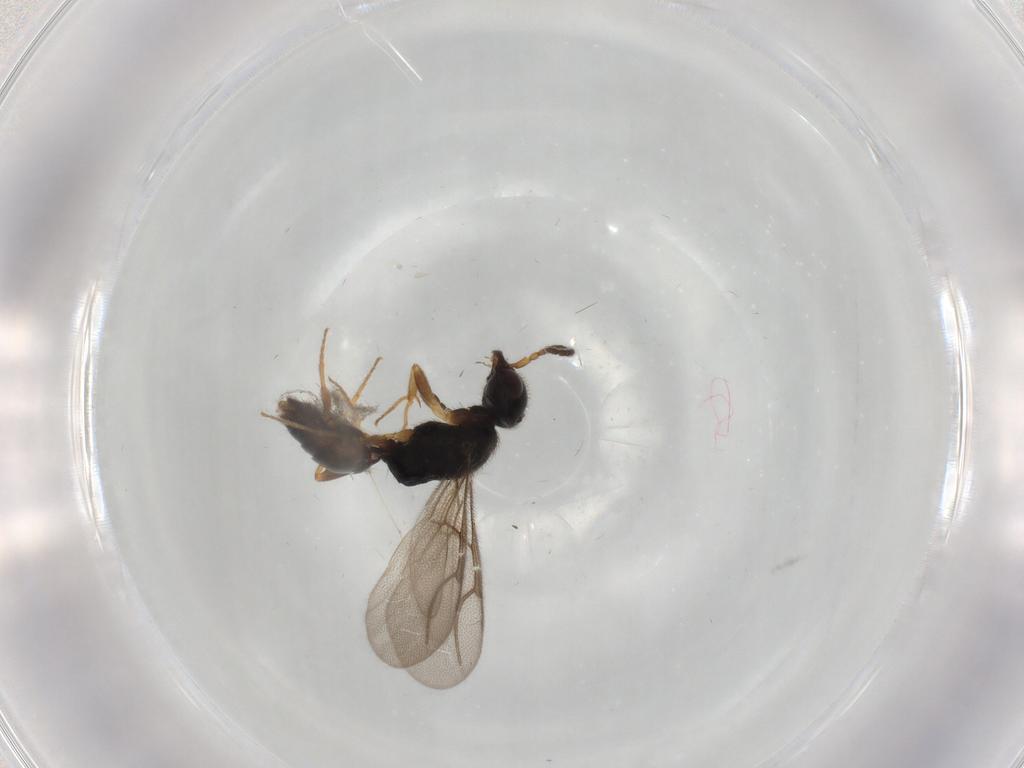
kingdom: Animalia
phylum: Arthropoda
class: Insecta
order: Hymenoptera
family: Bethylidae
